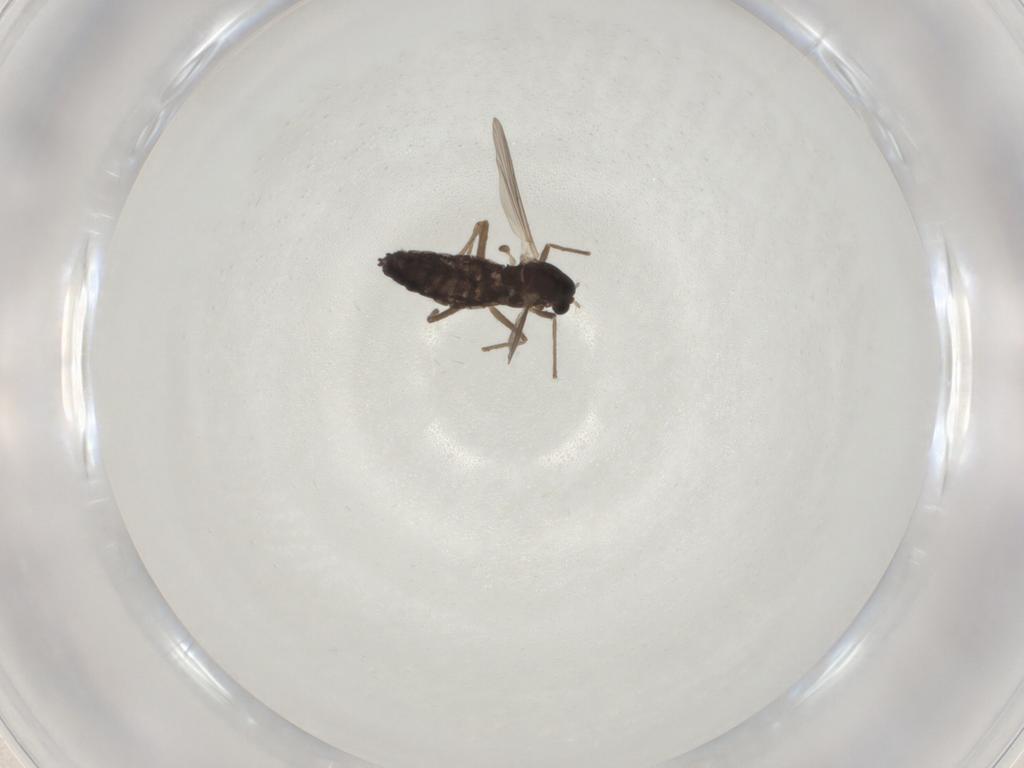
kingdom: Animalia
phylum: Arthropoda
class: Insecta
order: Diptera
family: Chironomidae
